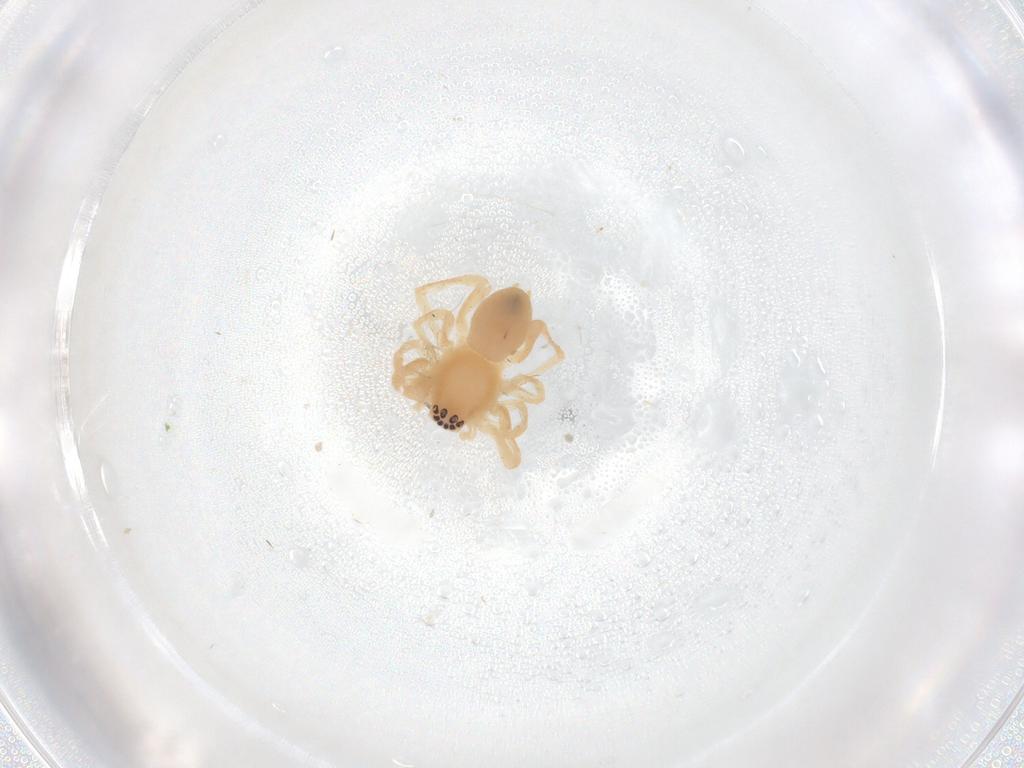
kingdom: Animalia
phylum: Arthropoda
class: Arachnida
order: Araneae
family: Anyphaenidae
